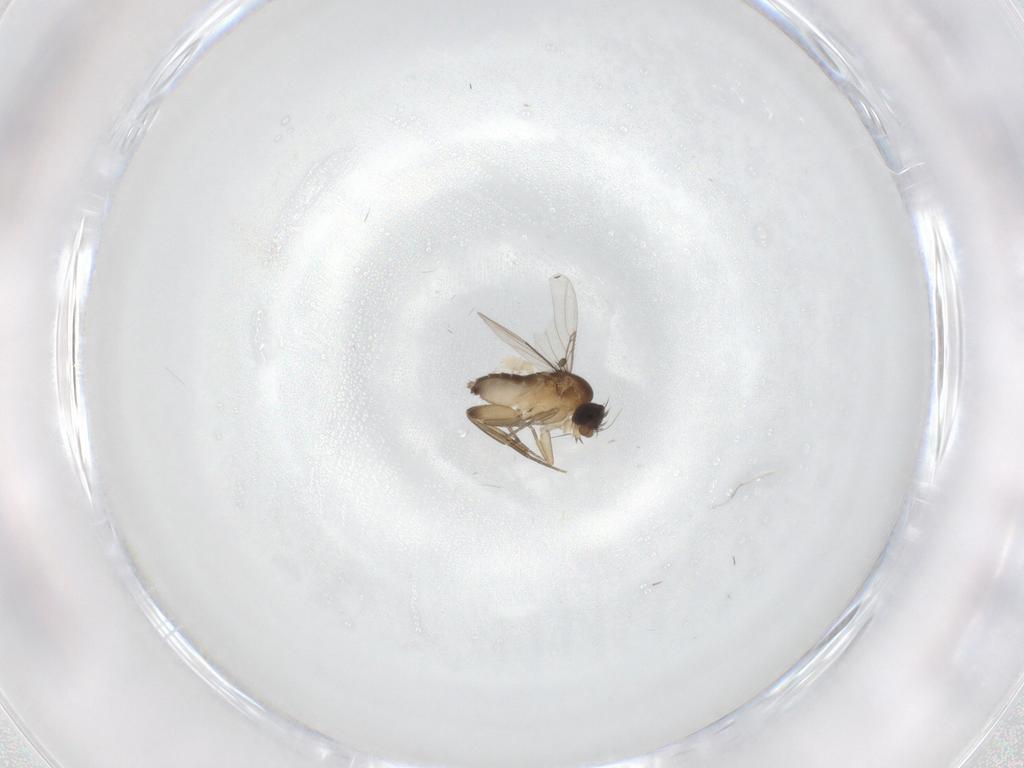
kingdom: Animalia
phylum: Arthropoda
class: Insecta
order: Diptera
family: Phoridae
